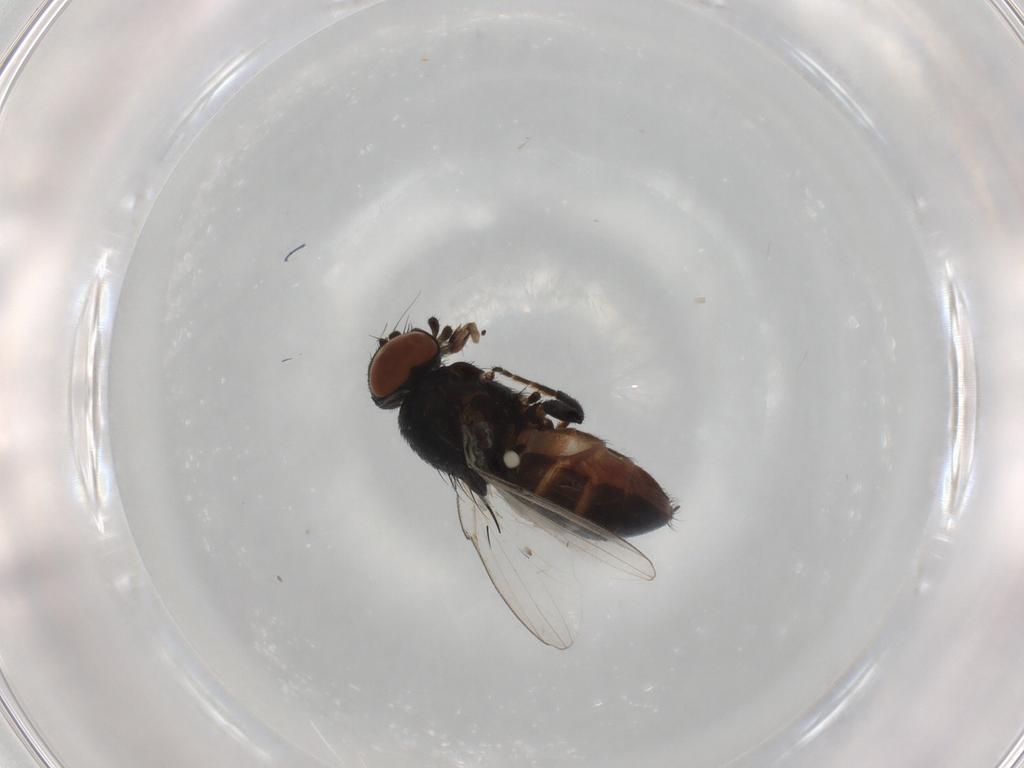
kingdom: Animalia
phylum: Arthropoda
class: Insecta
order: Diptera
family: Milichiidae
